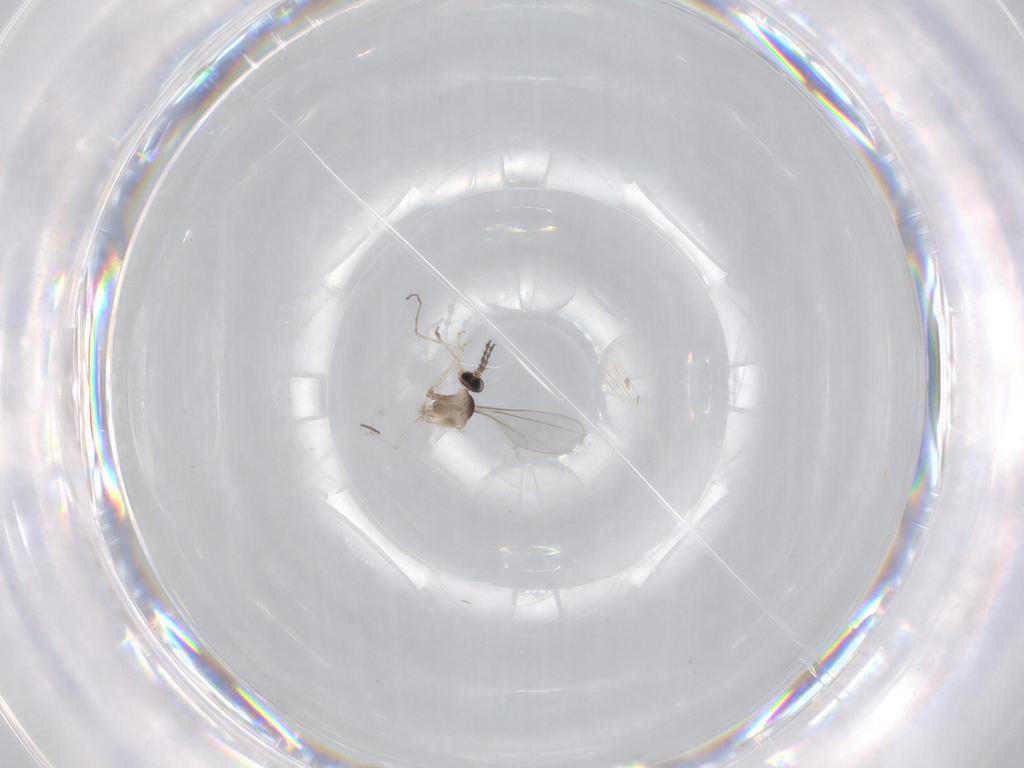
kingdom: Animalia
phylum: Arthropoda
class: Insecta
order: Diptera
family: Cecidomyiidae
